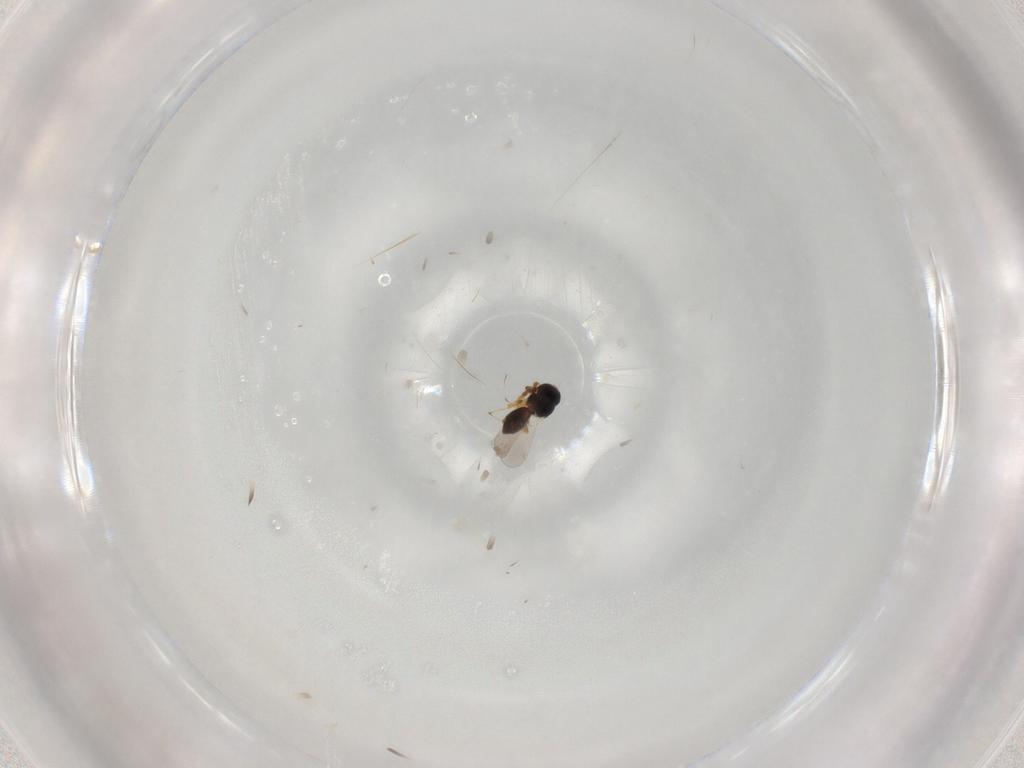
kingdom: Animalia
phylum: Arthropoda
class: Insecta
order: Hymenoptera
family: Platygastridae
